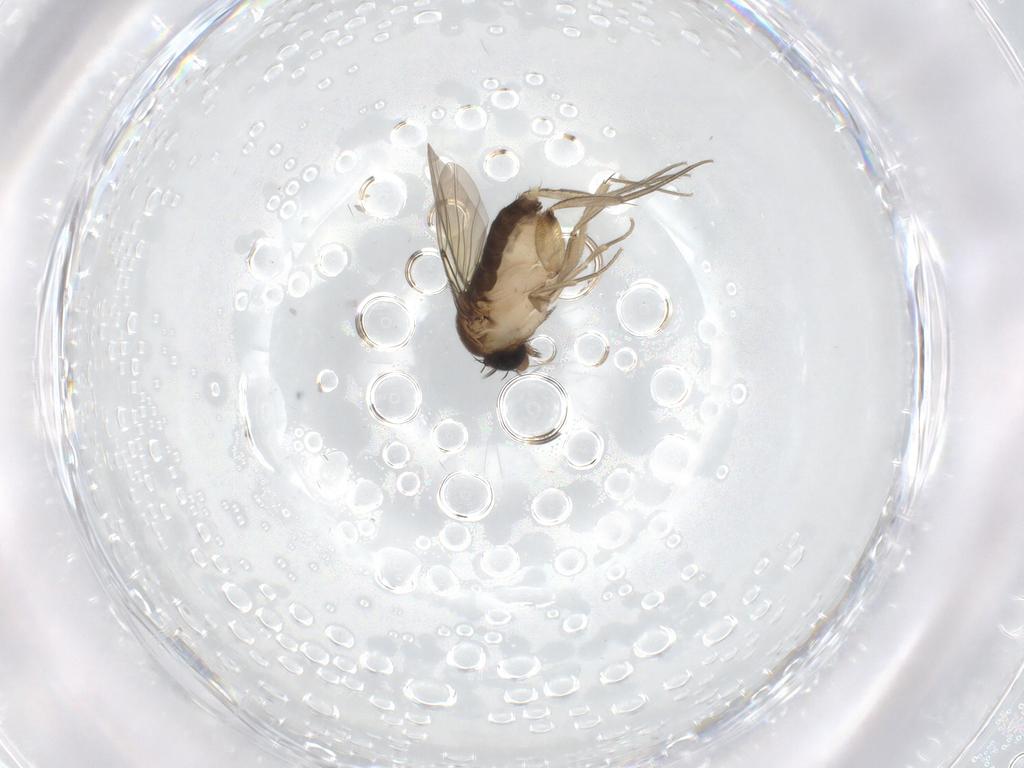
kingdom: Animalia
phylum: Arthropoda
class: Insecta
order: Diptera
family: Phoridae
